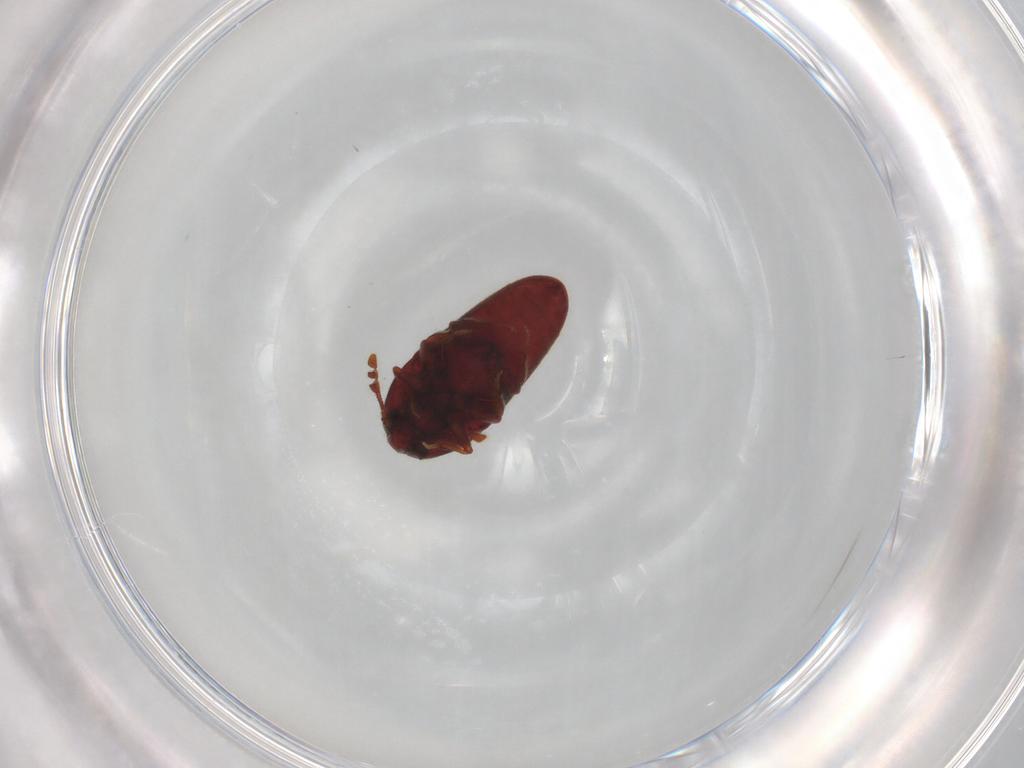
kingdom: Animalia
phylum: Arthropoda
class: Insecta
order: Coleoptera
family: Throscidae
